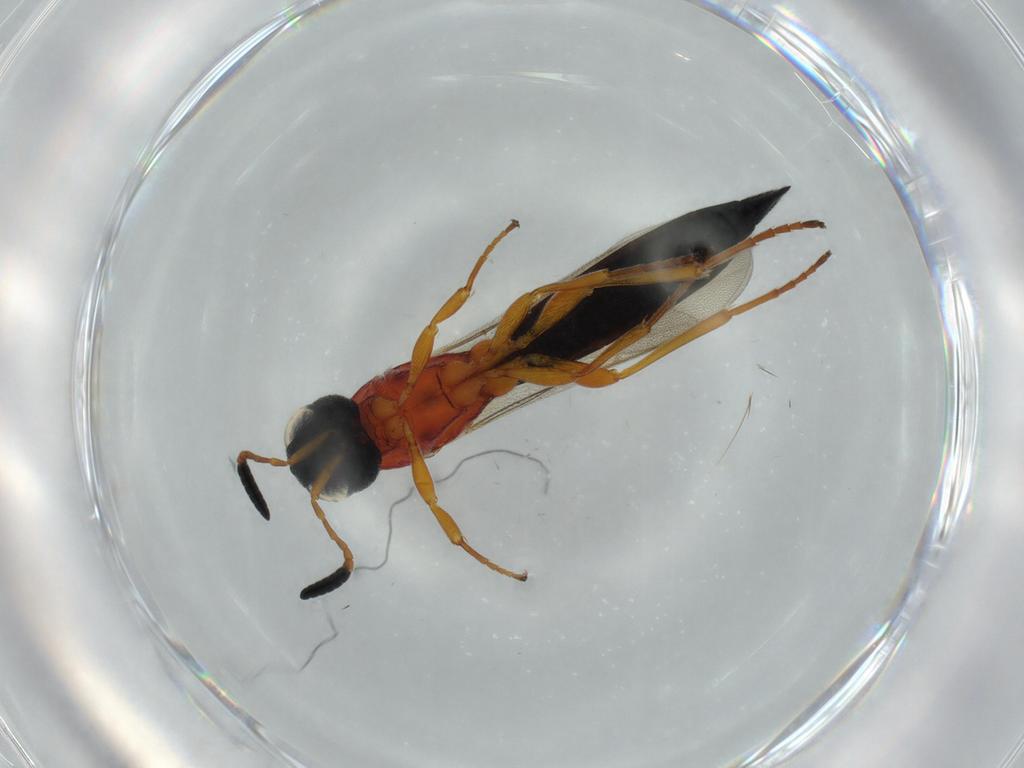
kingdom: Animalia
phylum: Arthropoda
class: Insecta
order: Hymenoptera
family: Scelionidae
